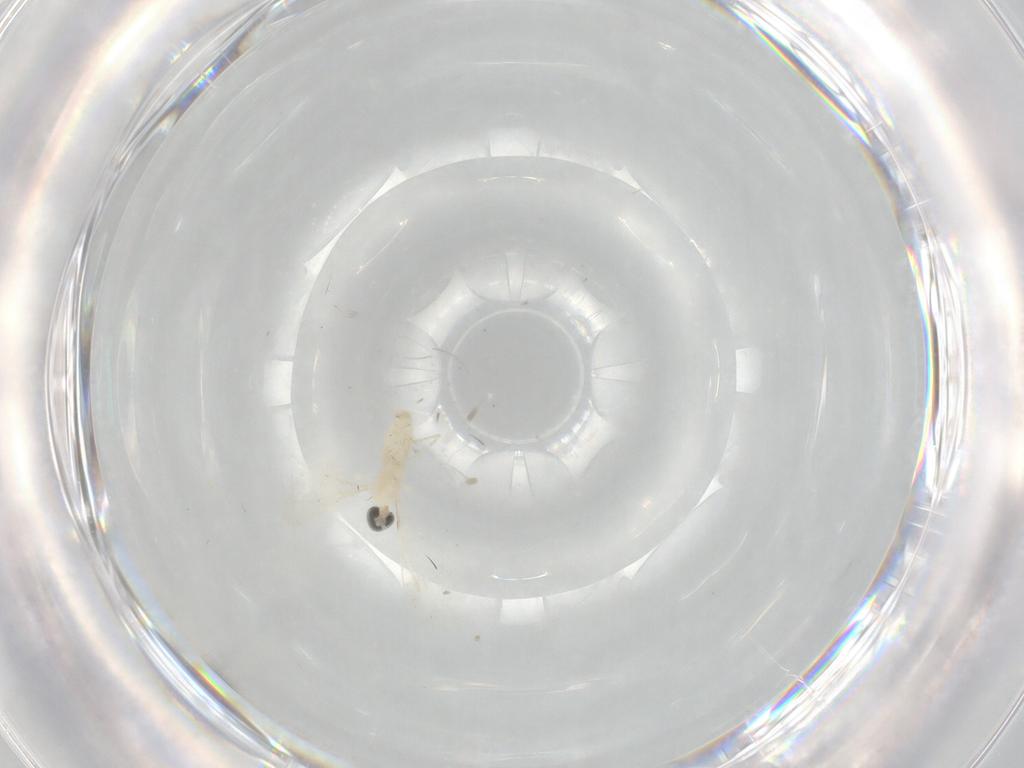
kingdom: Animalia
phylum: Arthropoda
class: Insecta
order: Diptera
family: Cecidomyiidae
